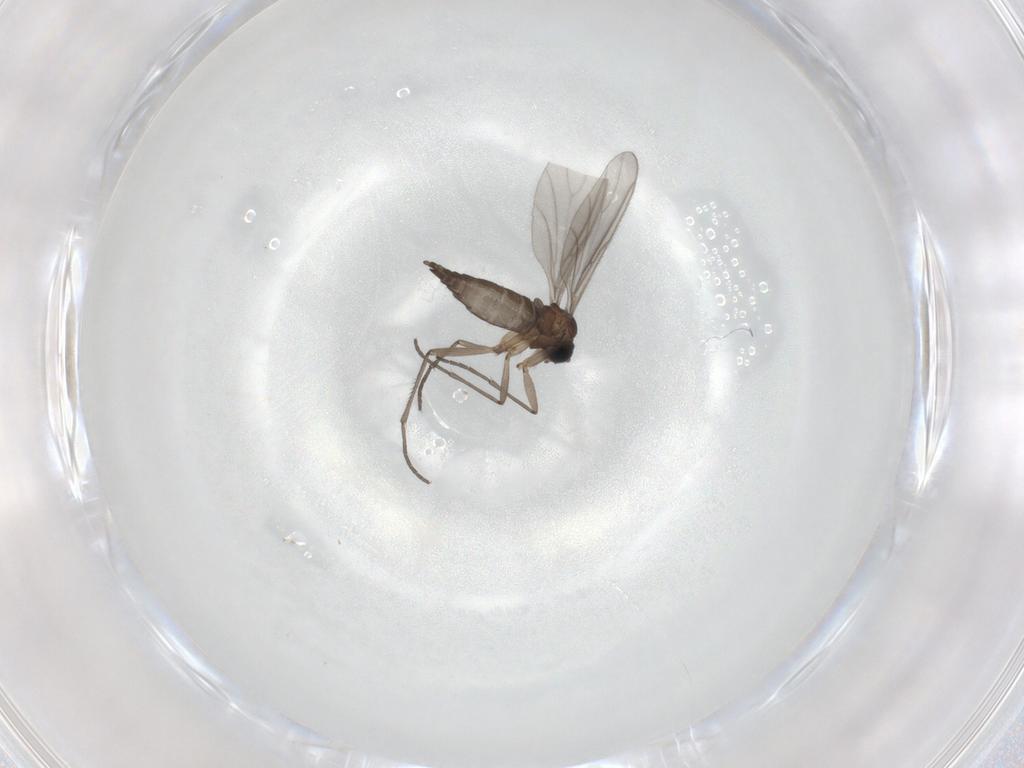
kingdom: Animalia
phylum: Arthropoda
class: Insecta
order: Diptera
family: Sciaridae
